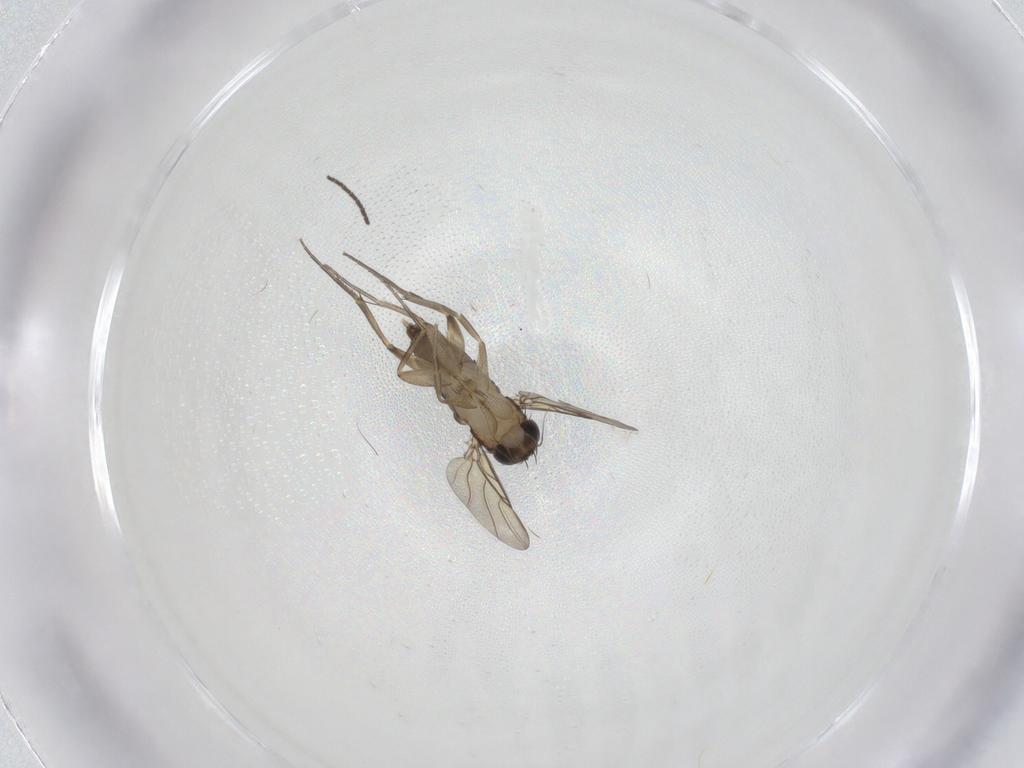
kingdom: Animalia
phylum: Arthropoda
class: Insecta
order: Diptera
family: Phoridae
